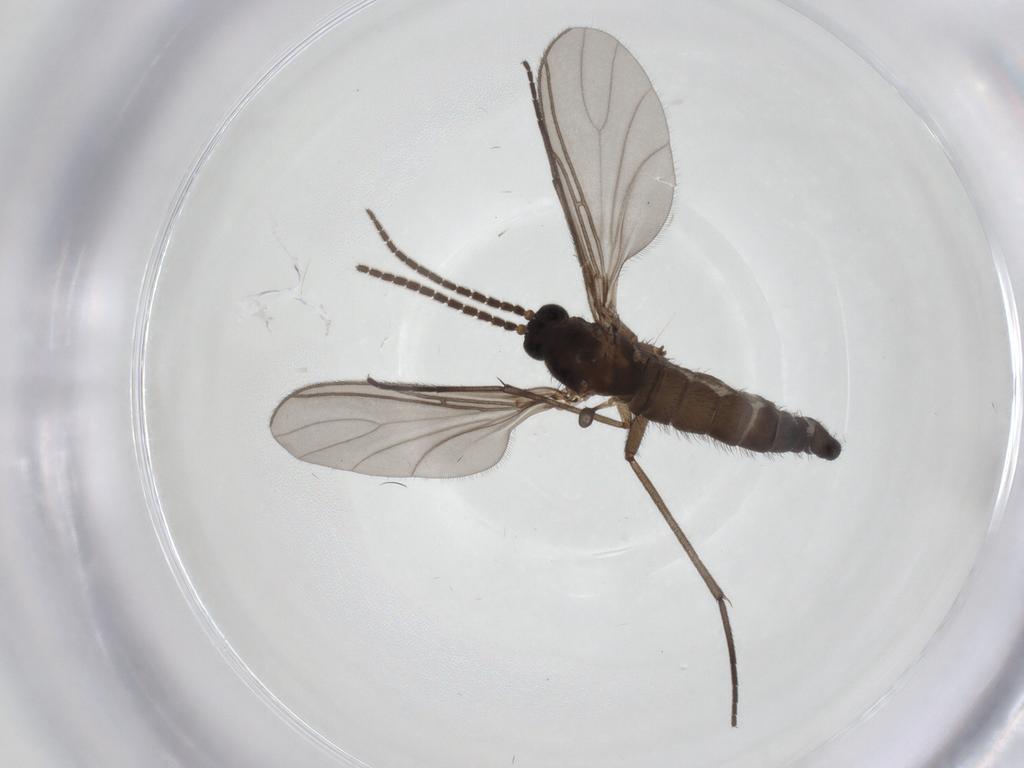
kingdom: Animalia
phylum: Arthropoda
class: Insecta
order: Diptera
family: Sciaridae
